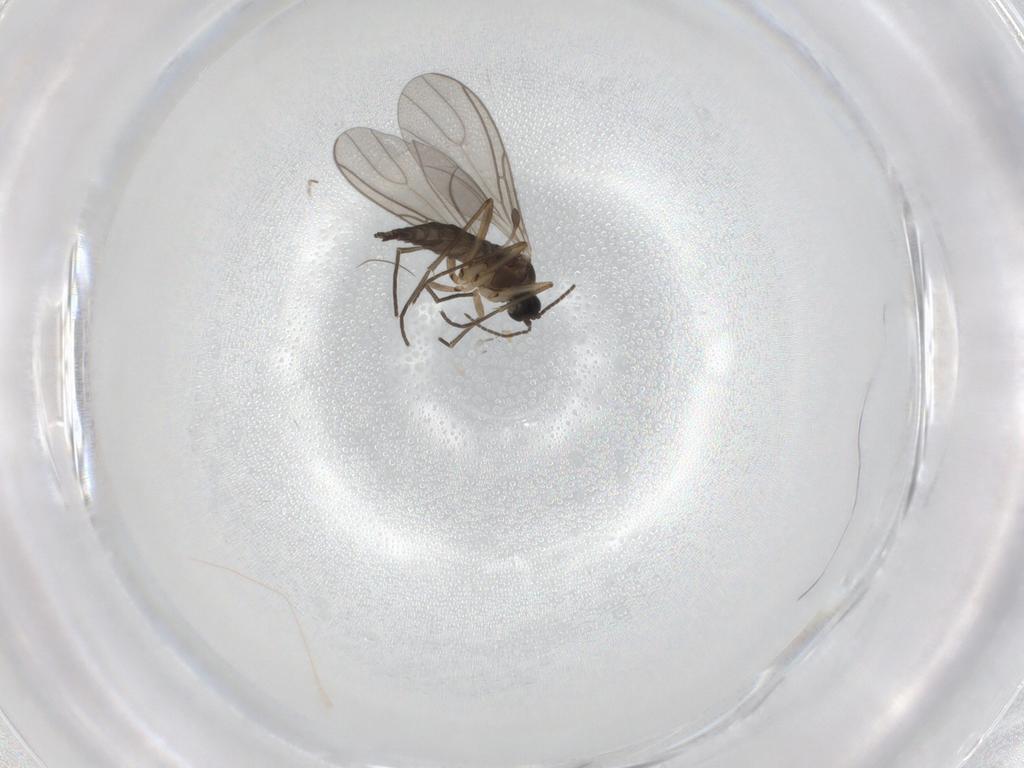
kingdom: Animalia
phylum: Arthropoda
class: Insecta
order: Diptera
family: Sciaridae
